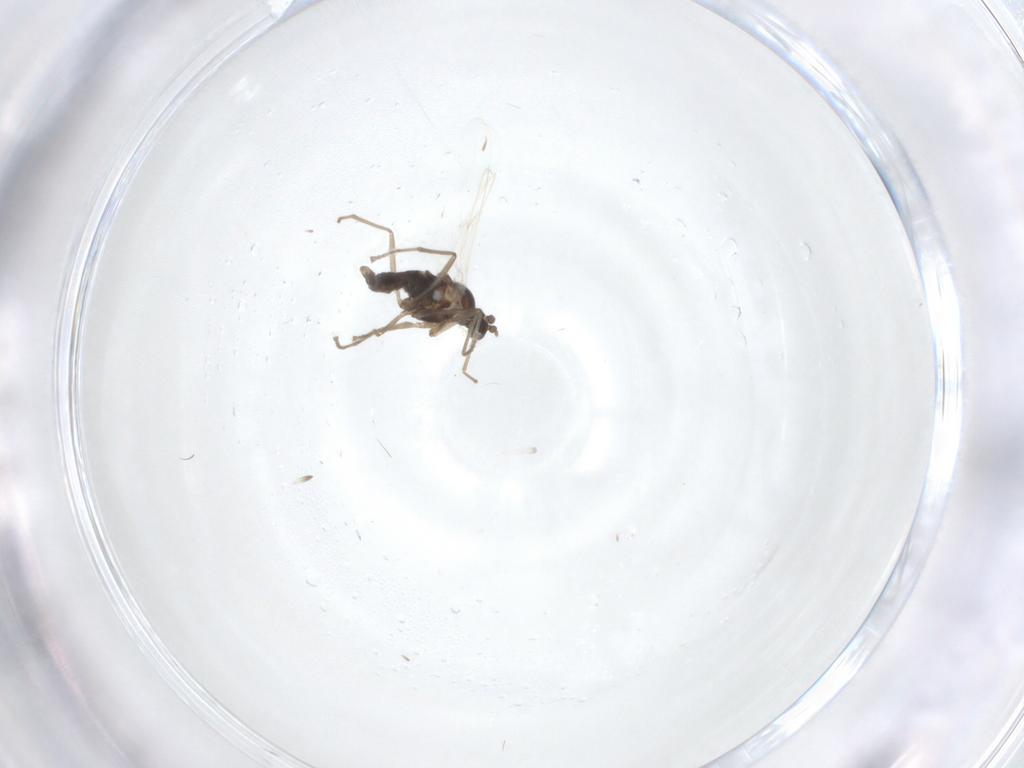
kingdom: Animalia
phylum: Arthropoda
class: Insecta
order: Diptera
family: Cecidomyiidae
